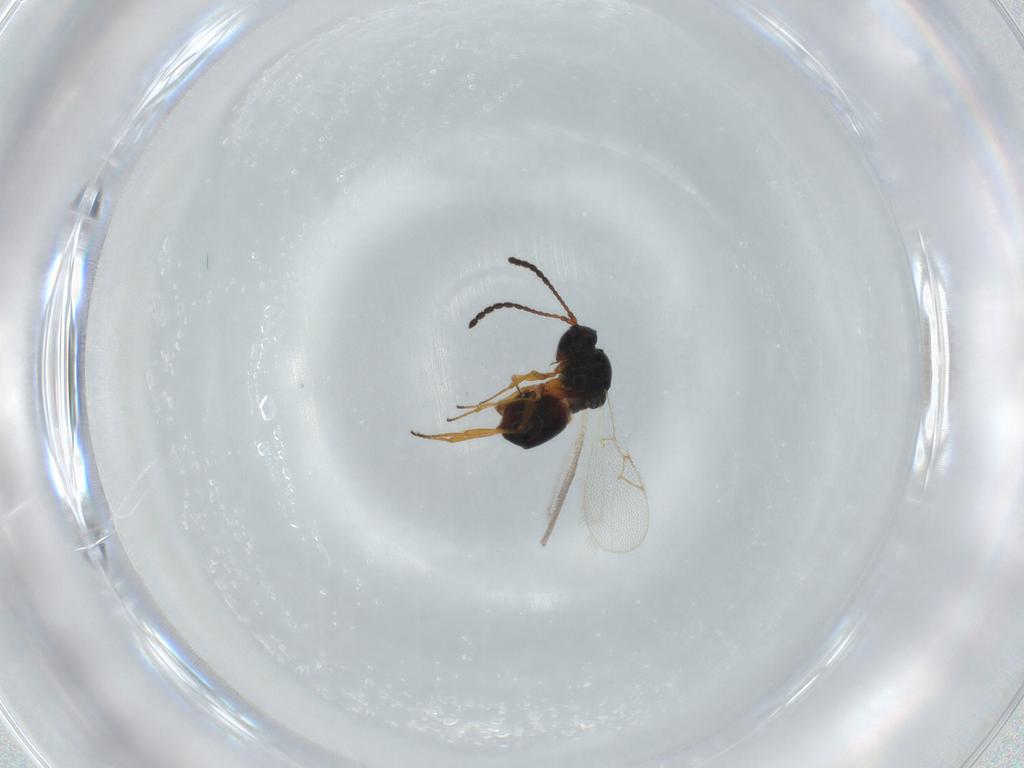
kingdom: Animalia
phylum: Arthropoda
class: Insecta
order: Hymenoptera
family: Figitidae
